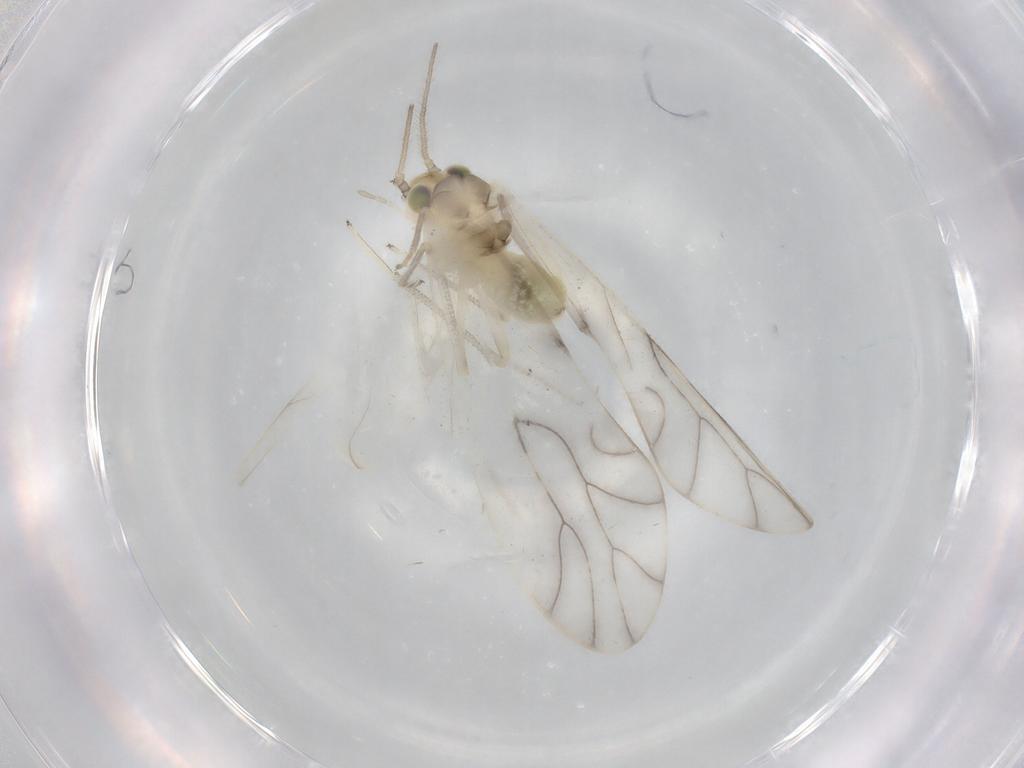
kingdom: Animalia
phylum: Arthropoda
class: Insecta
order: Psocodea
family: Caeciliusidae
